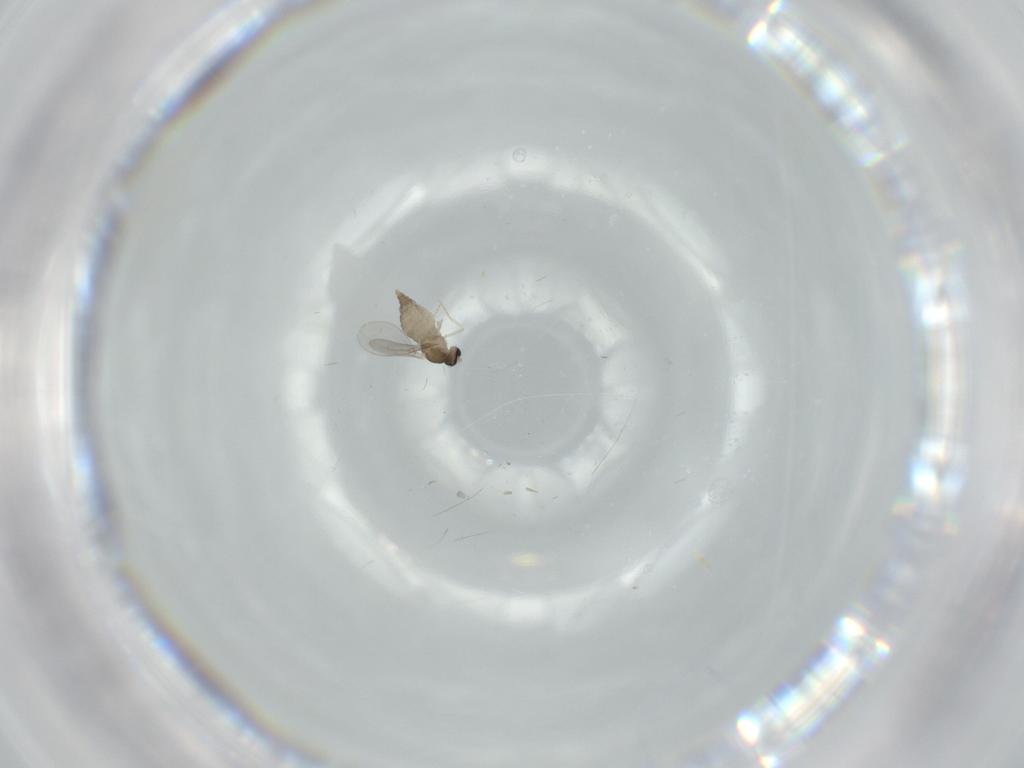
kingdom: Animalia
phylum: Arthropoda
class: Insecta
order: Diptera
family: Cecidomyiidae
